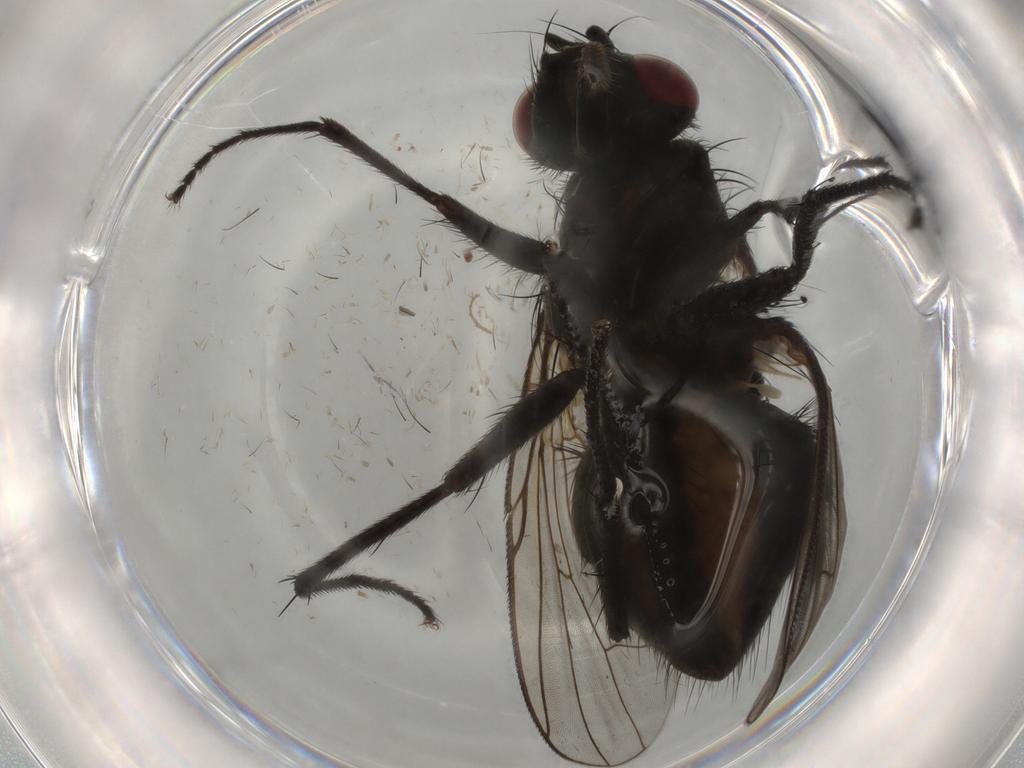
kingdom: Animalia
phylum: Arthropoda
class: Insecta
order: Diptera
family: Muscidae
